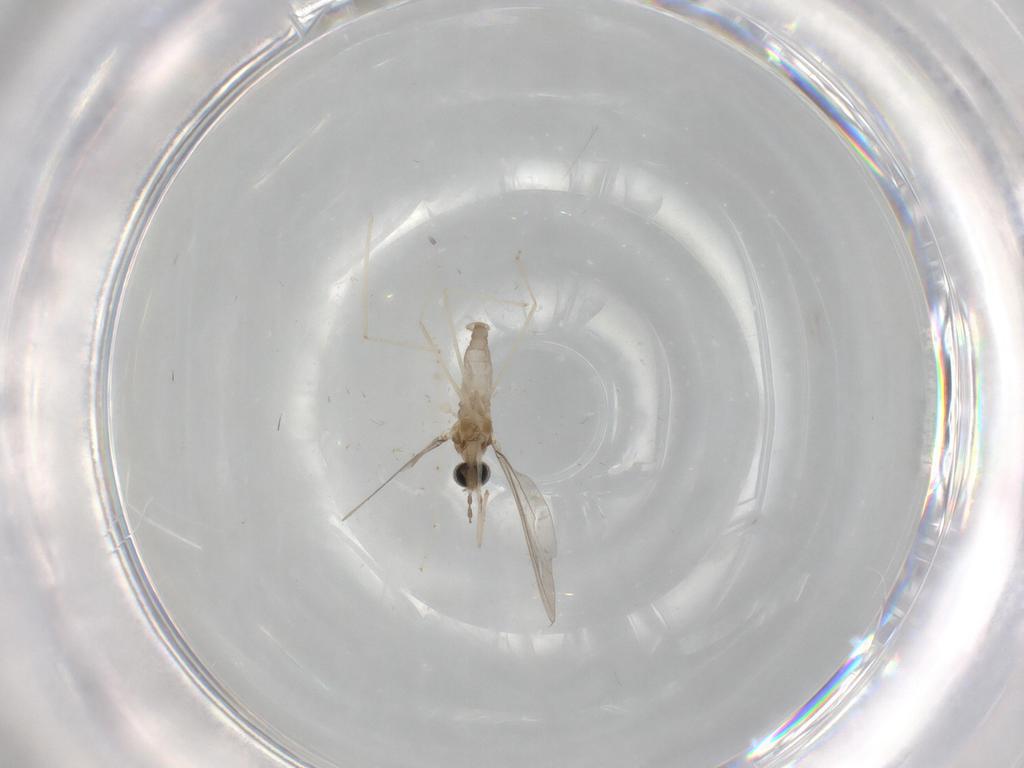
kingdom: Animalia
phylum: Arthropoda
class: Insecta
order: Diptera
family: Cecidomyiidae
